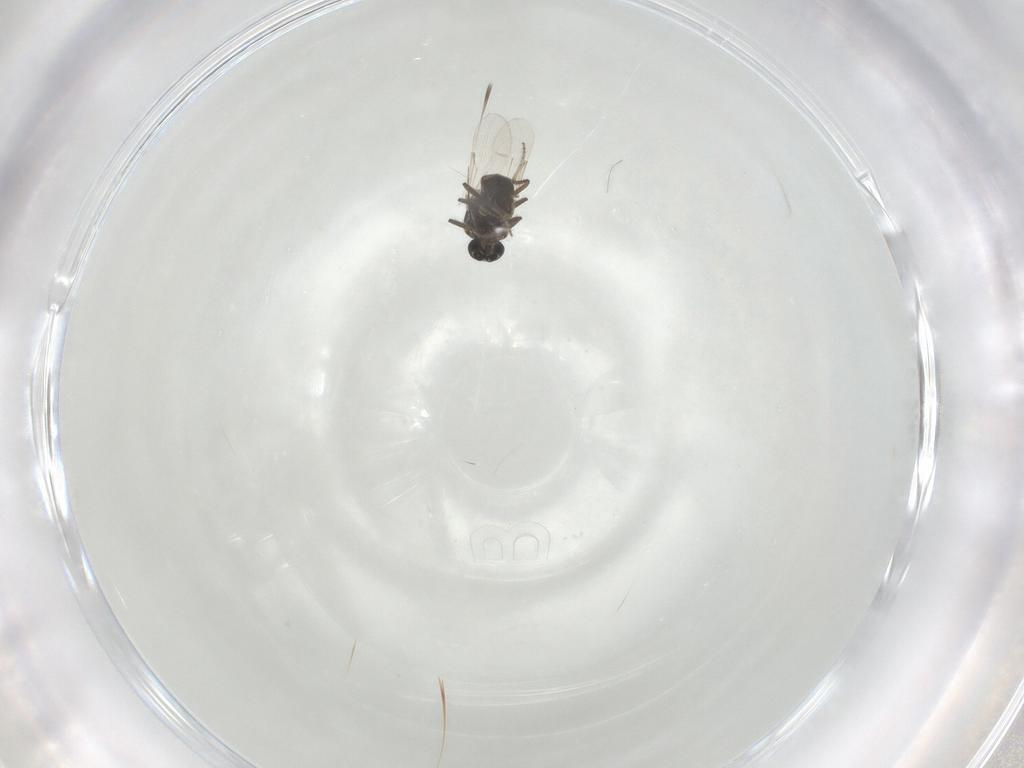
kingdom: Animalia
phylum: Arthropoda
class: Insecta
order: Diptera
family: Ceratopogonidae
